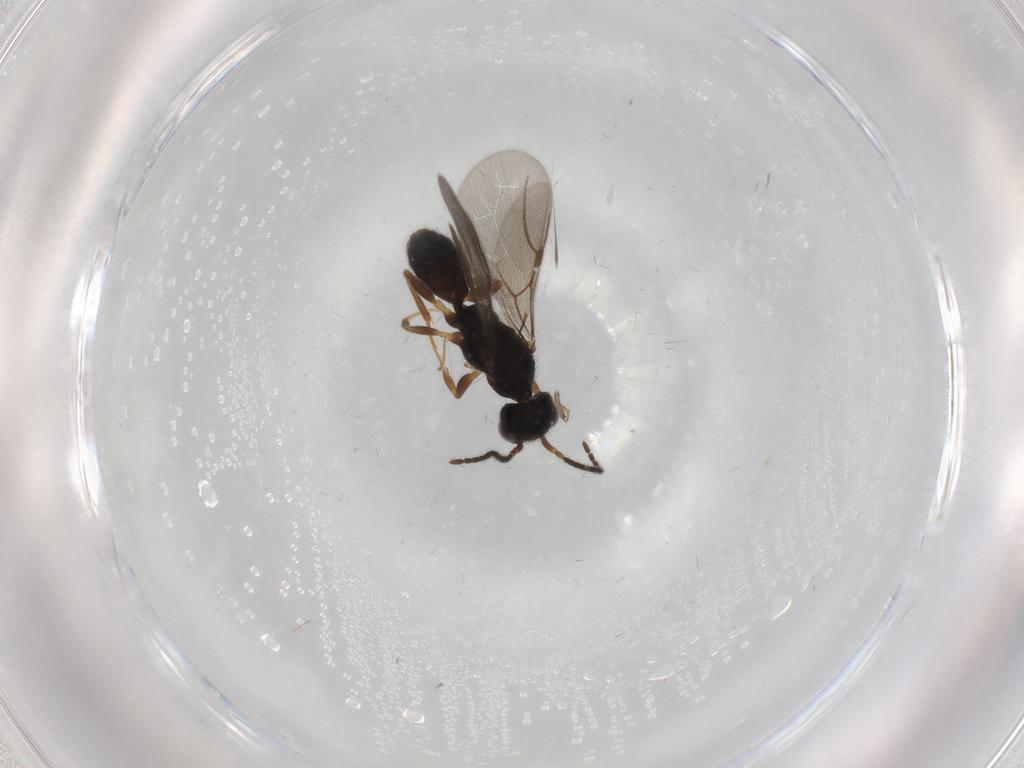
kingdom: Animalia
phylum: Arthropoda
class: Insecta
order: Hymenoptera
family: Bethylidae
